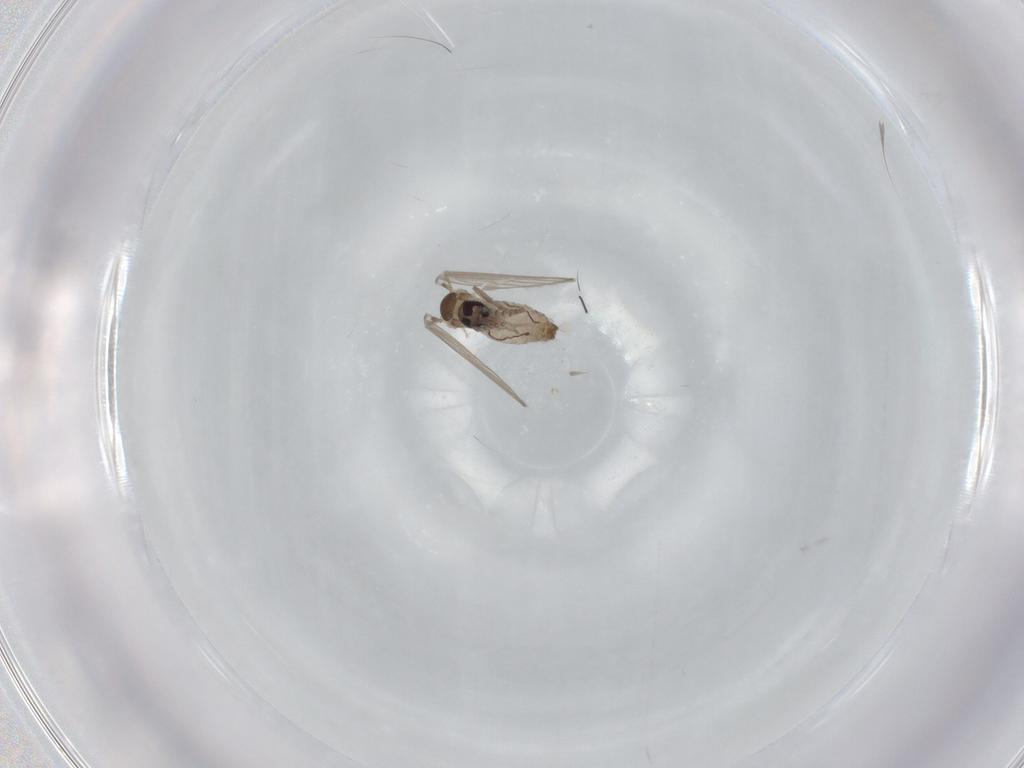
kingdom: Animalia
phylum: Arthropoda
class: Insecta
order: Diptera
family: Psychodidae
